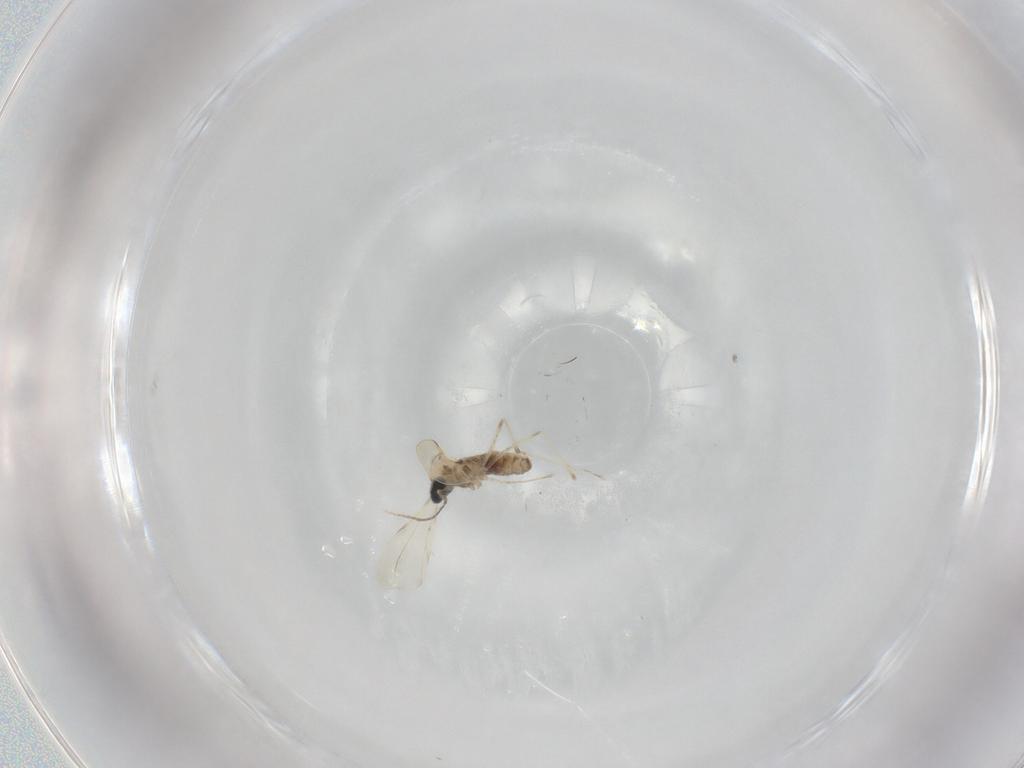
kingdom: Animalia
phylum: Arthropoda
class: Insecta
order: Diptera
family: Cecidomyiidae
